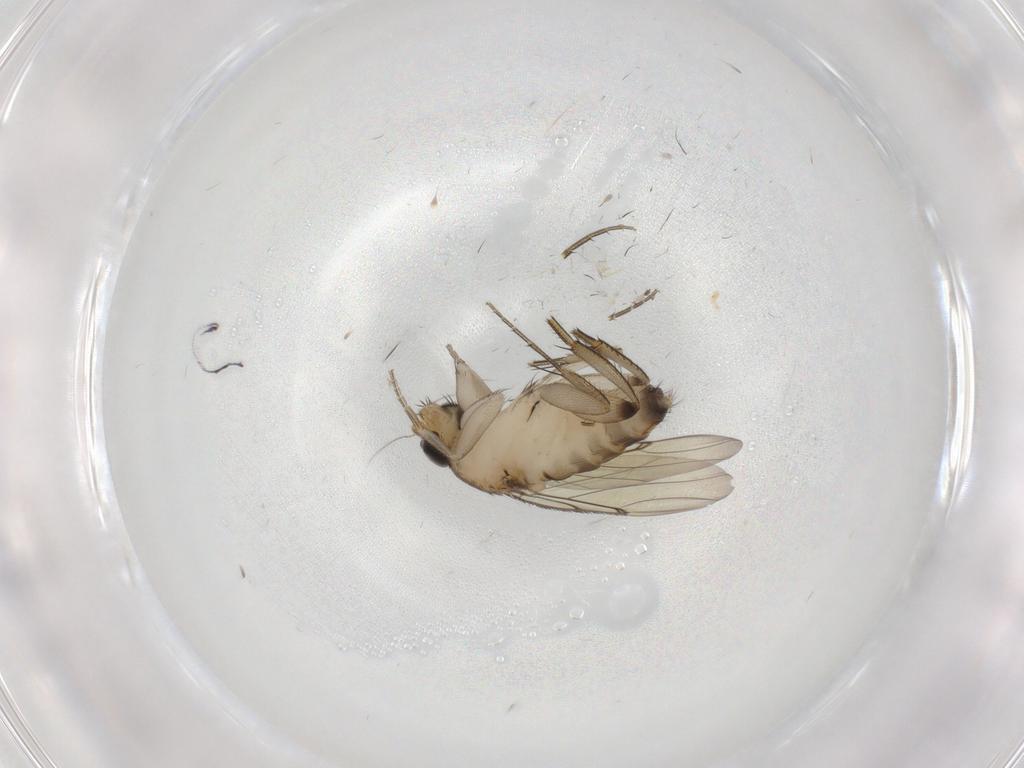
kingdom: Animalia
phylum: Arthropoda
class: Insecta
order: Diptera
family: Phoridae
